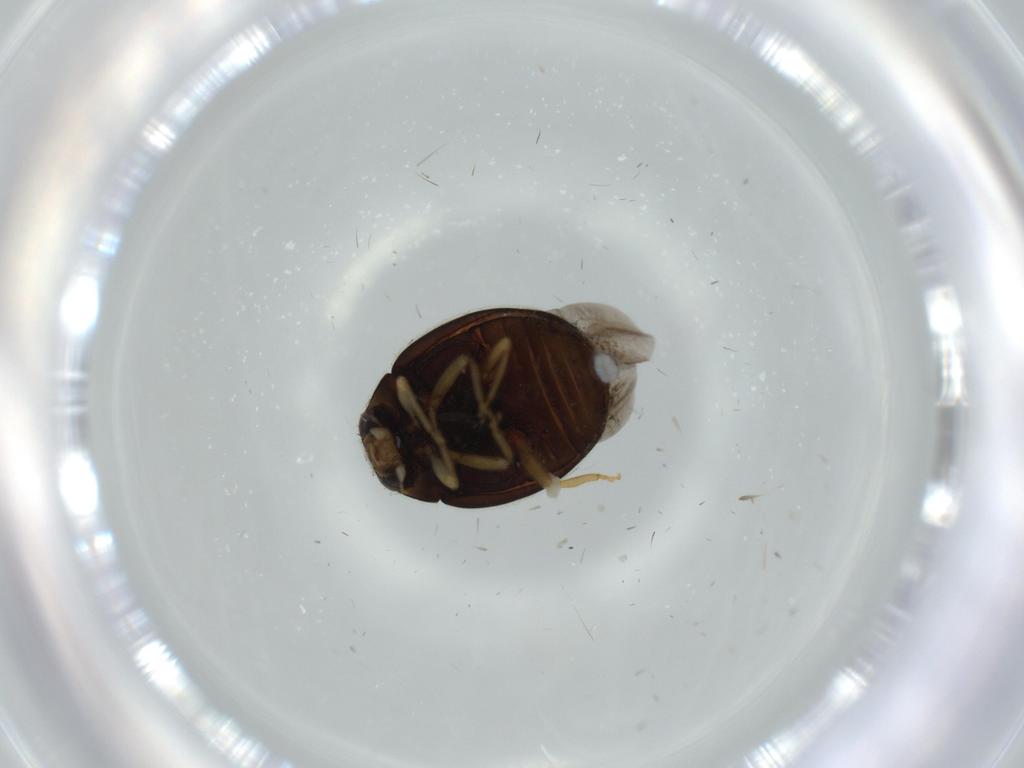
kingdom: Animalia
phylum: Arthropoda
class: Insecta
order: Coleoptera
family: Coccinellidae
